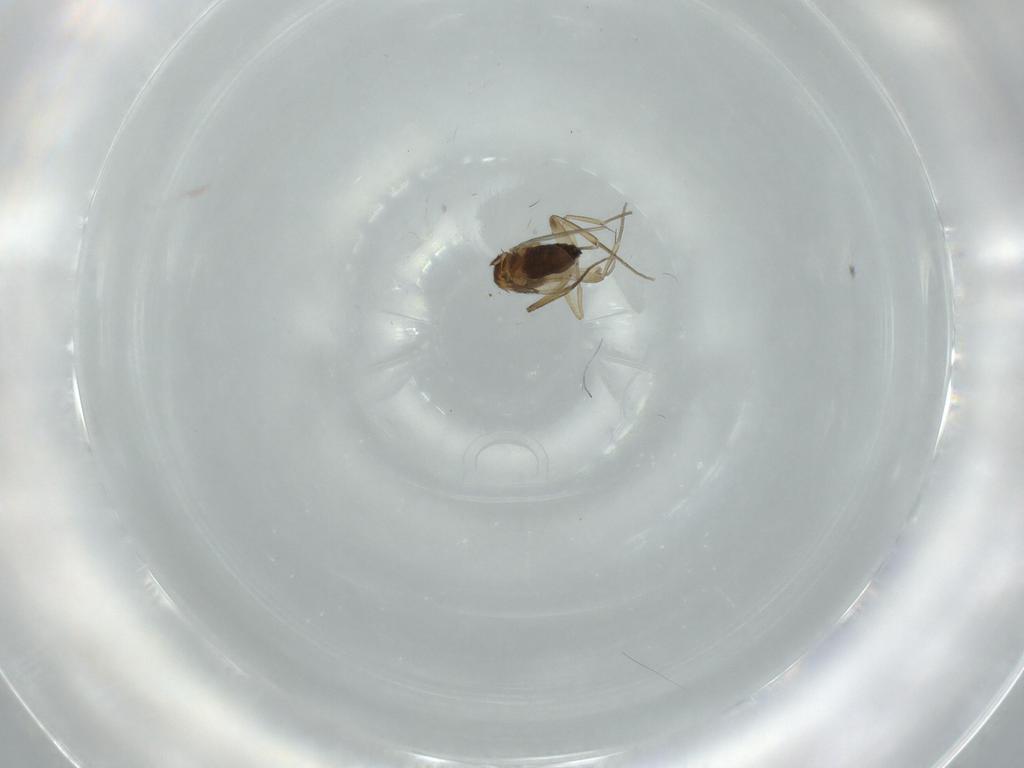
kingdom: Animalia
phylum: Arthropoda
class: Insecta
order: Diptera
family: Phoridae
